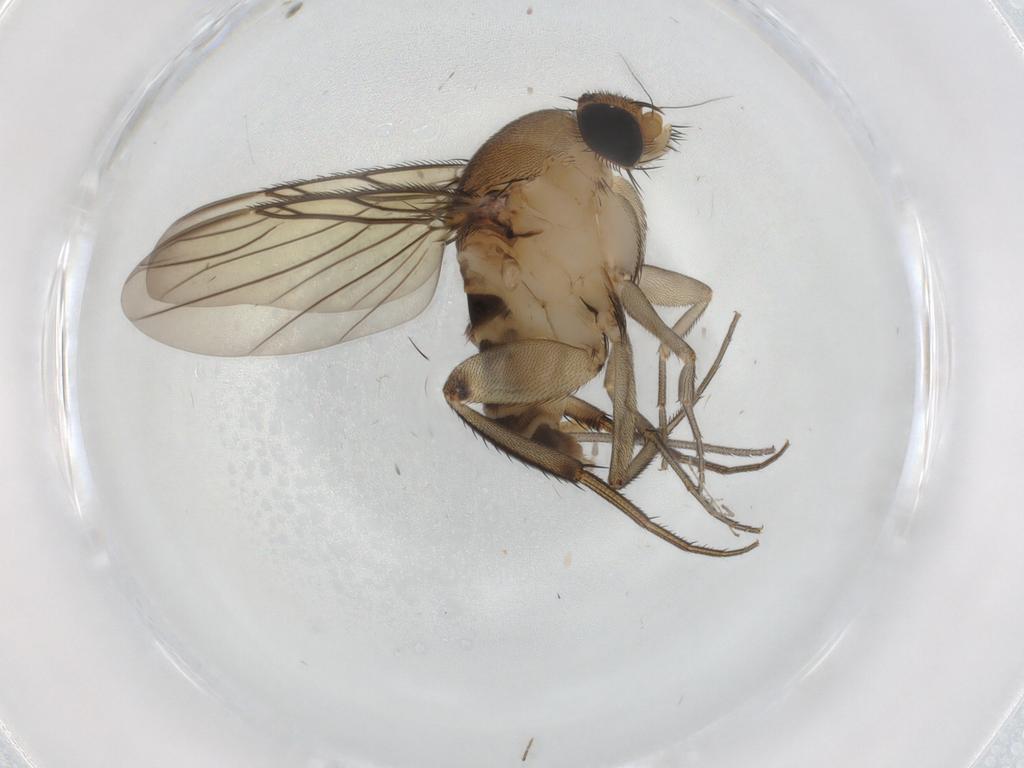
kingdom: Animalia
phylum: Arthropoda
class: Insecta
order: Diptera
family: Phoridae
